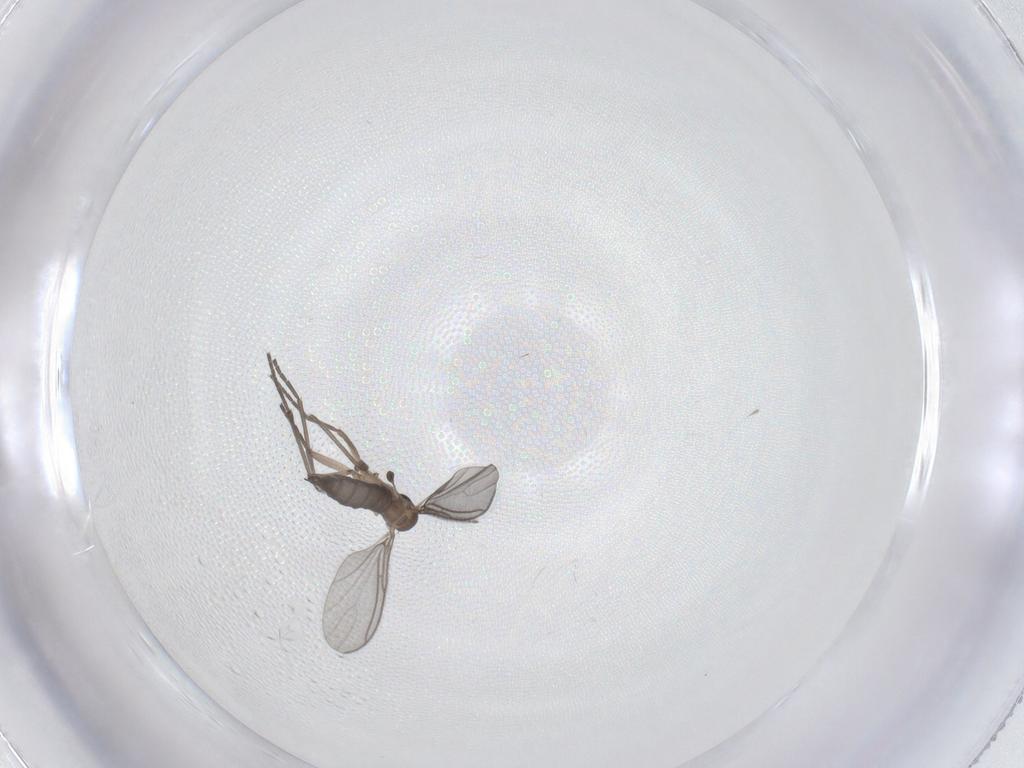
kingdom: Animalia
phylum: Arthropoda
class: Insecta
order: Diptera
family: Sciaridae
